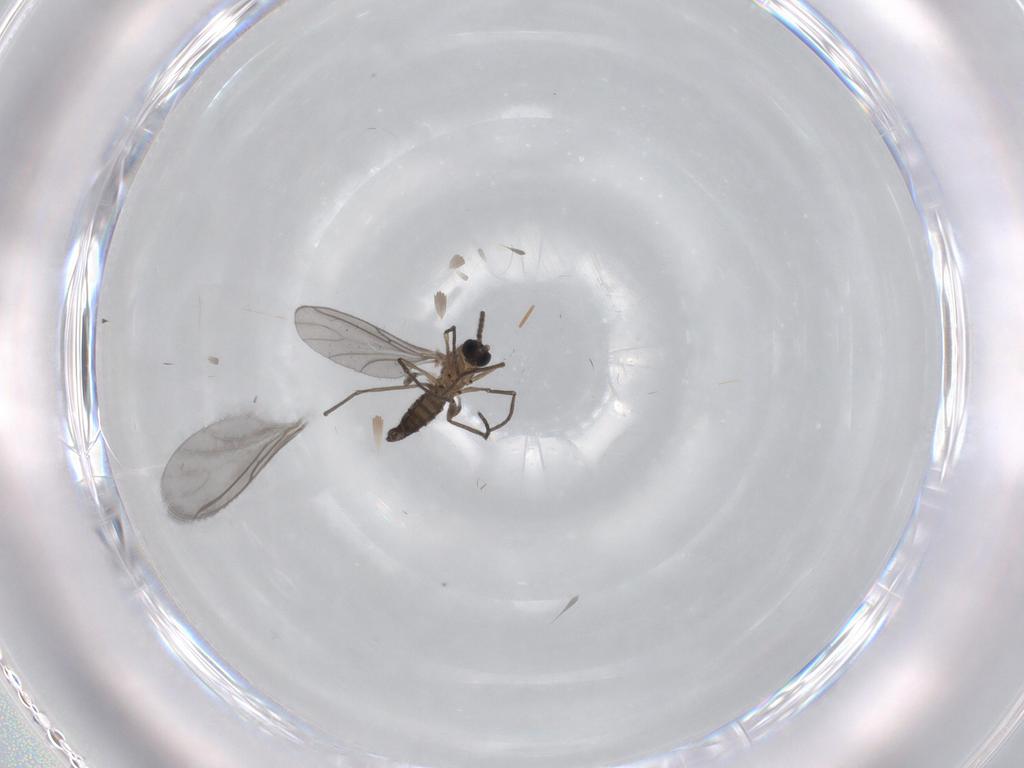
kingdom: Animalia
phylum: Arthropoda
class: Insecta
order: Diptera
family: Sciaridae
